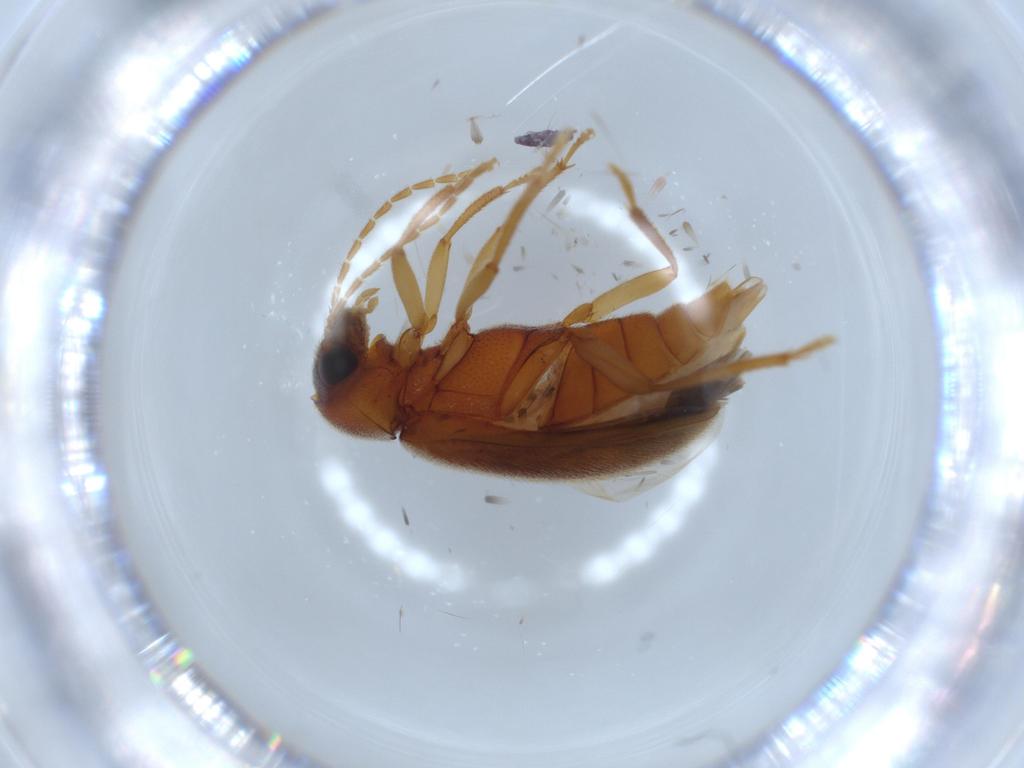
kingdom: Animalia
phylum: Arthropoda
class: Insecta
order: Coleoptera
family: Ptilodactylidae
